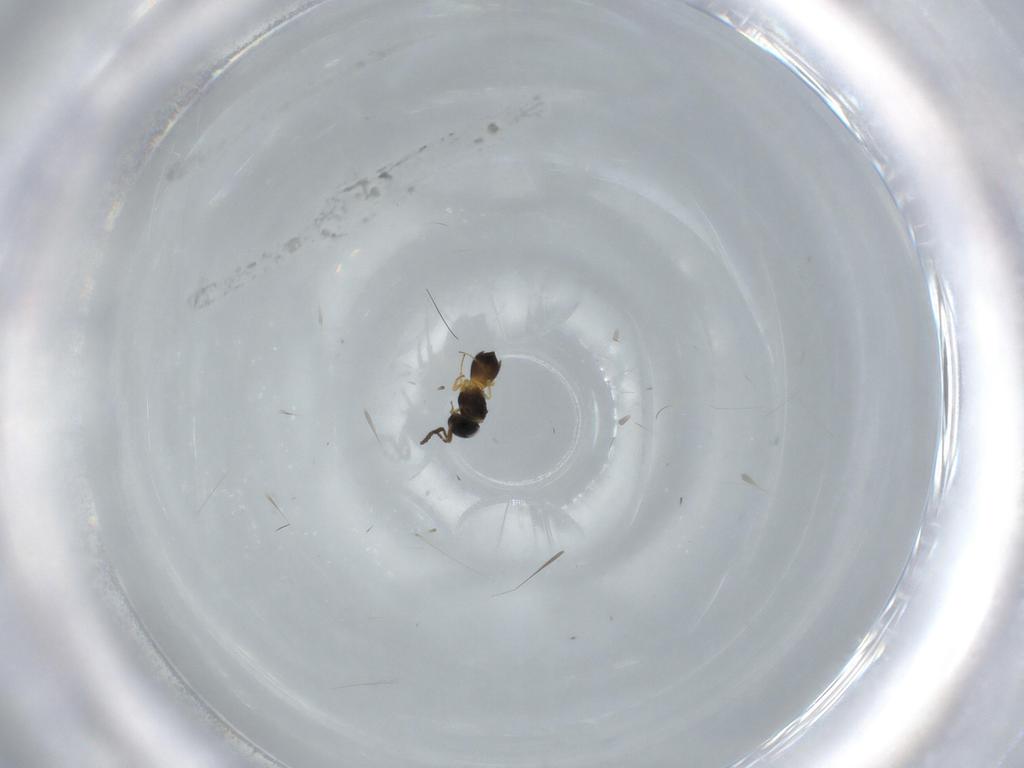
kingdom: Animalia
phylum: Arthropoda
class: Insecta
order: Hymenoptera
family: Scelionidae
